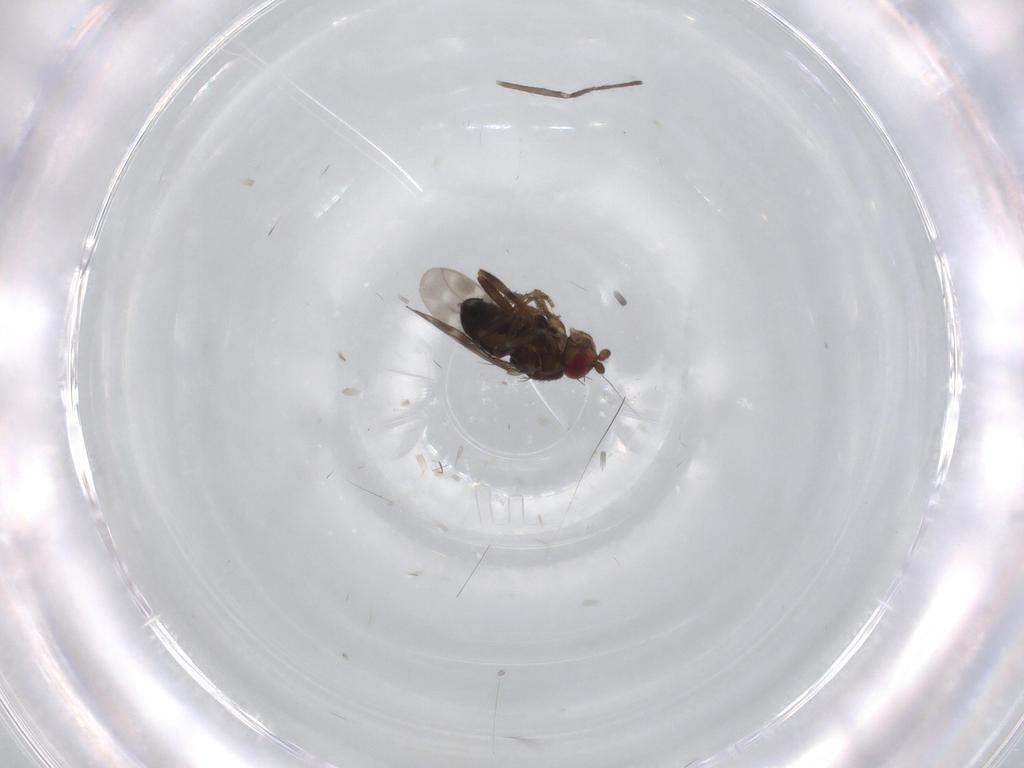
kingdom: Animalia
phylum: Arthropoda
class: Insecta
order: Diptera
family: Sphaeroceridae
